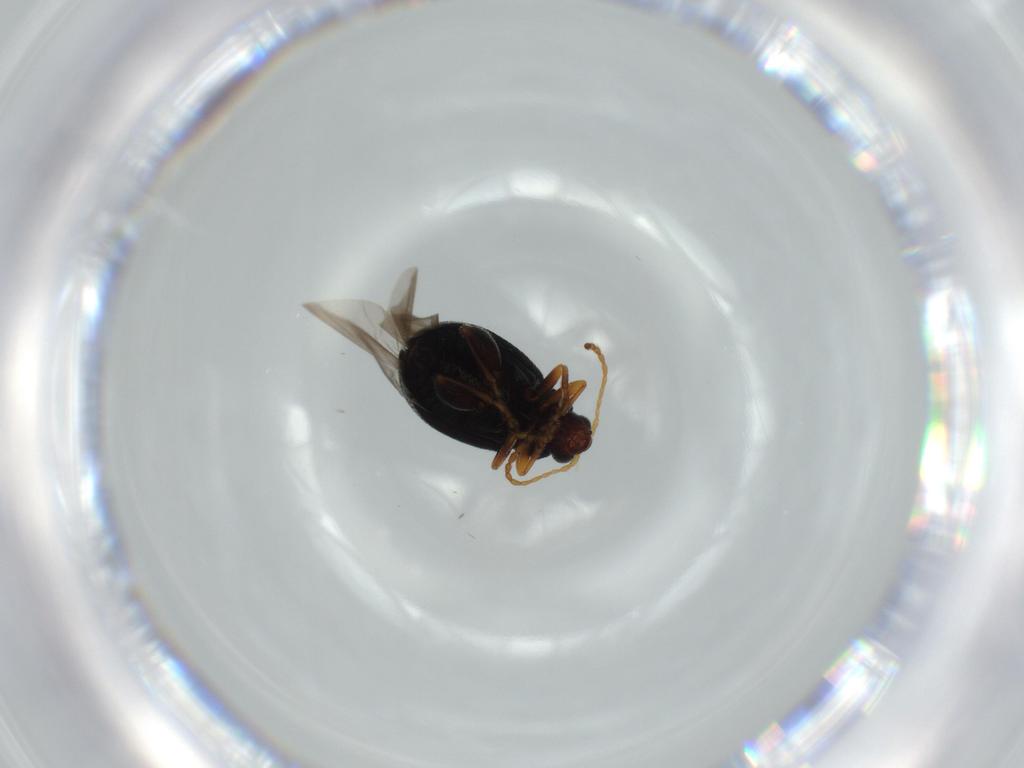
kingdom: Animalia
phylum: Arthropoda
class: Insecta
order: Coleoptera
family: Chrysomelidae
